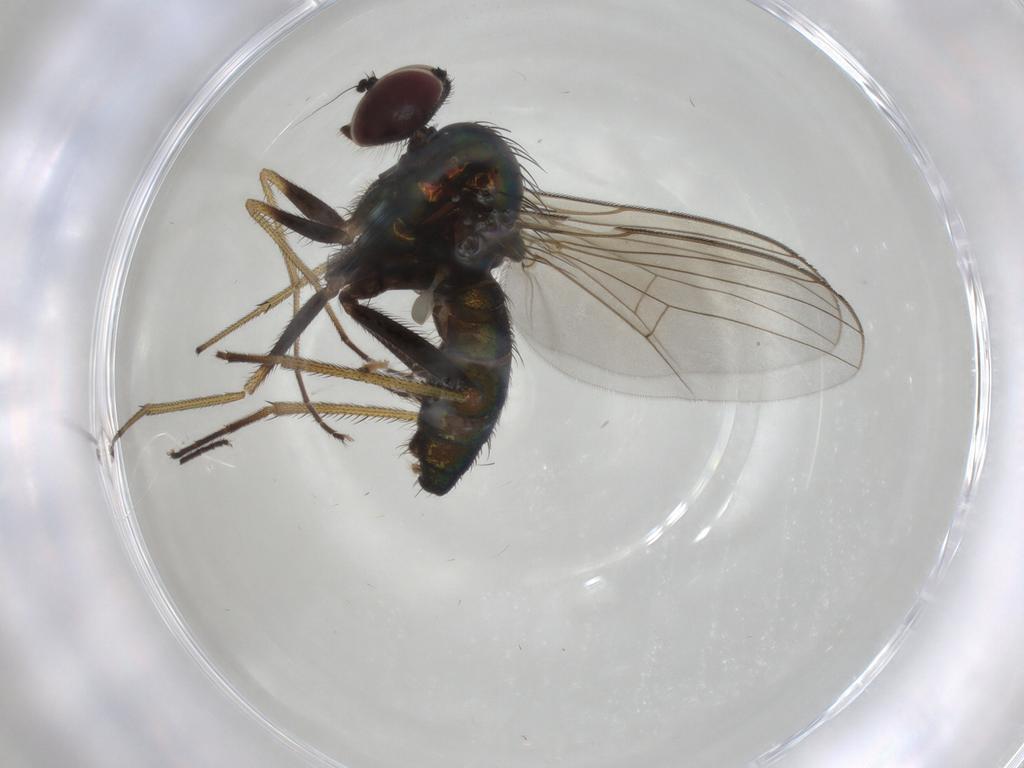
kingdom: Animalia
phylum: Arthropoda
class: Insecta
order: Diptera
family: Dolichopodidae
